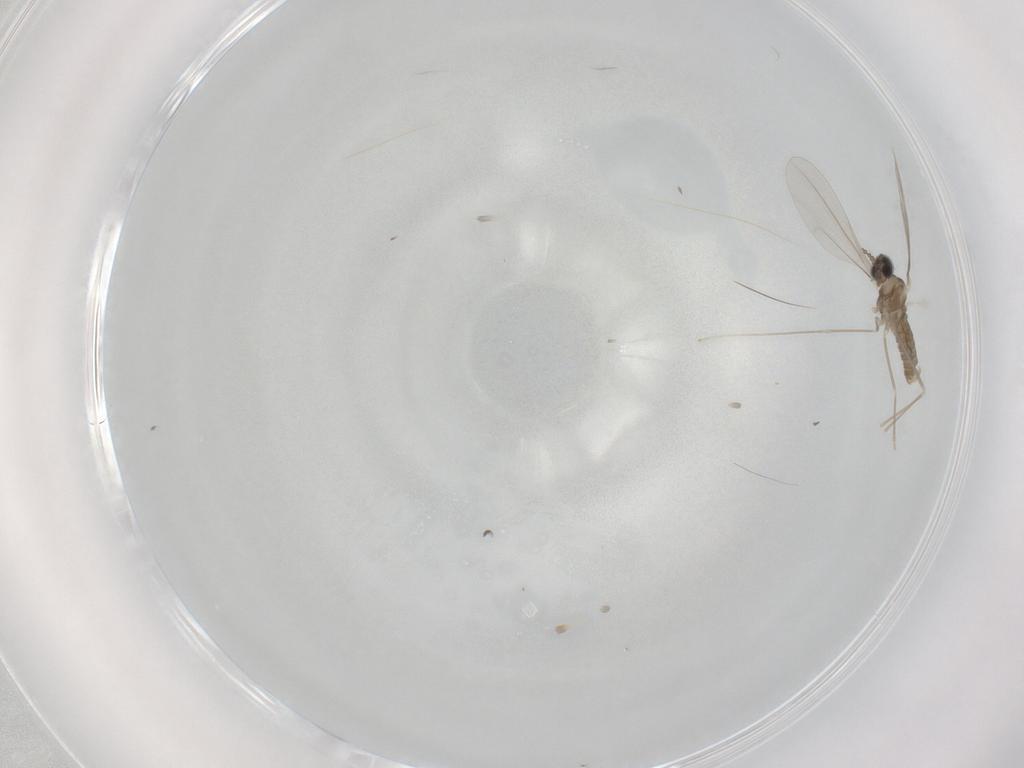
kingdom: Animalia
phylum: Arthropoda
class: Insecta
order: Diptera
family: Cecidomyiidae
